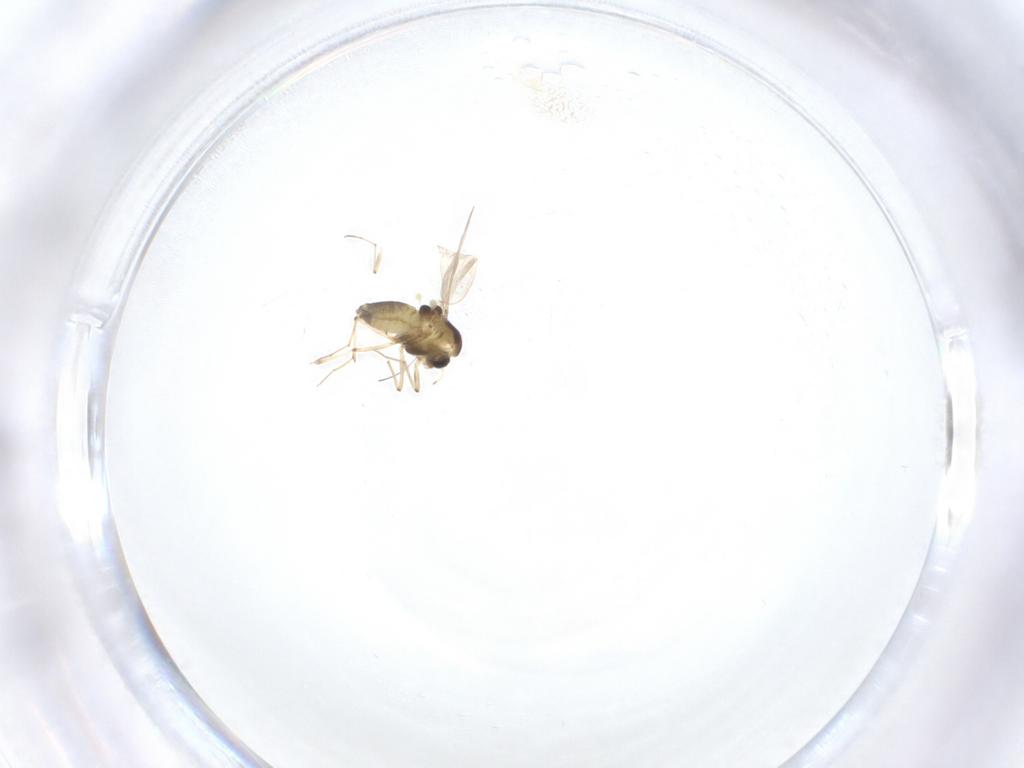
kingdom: Animalia
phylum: Arthropoda
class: Insecta
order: Diptera
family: Chironomidae
